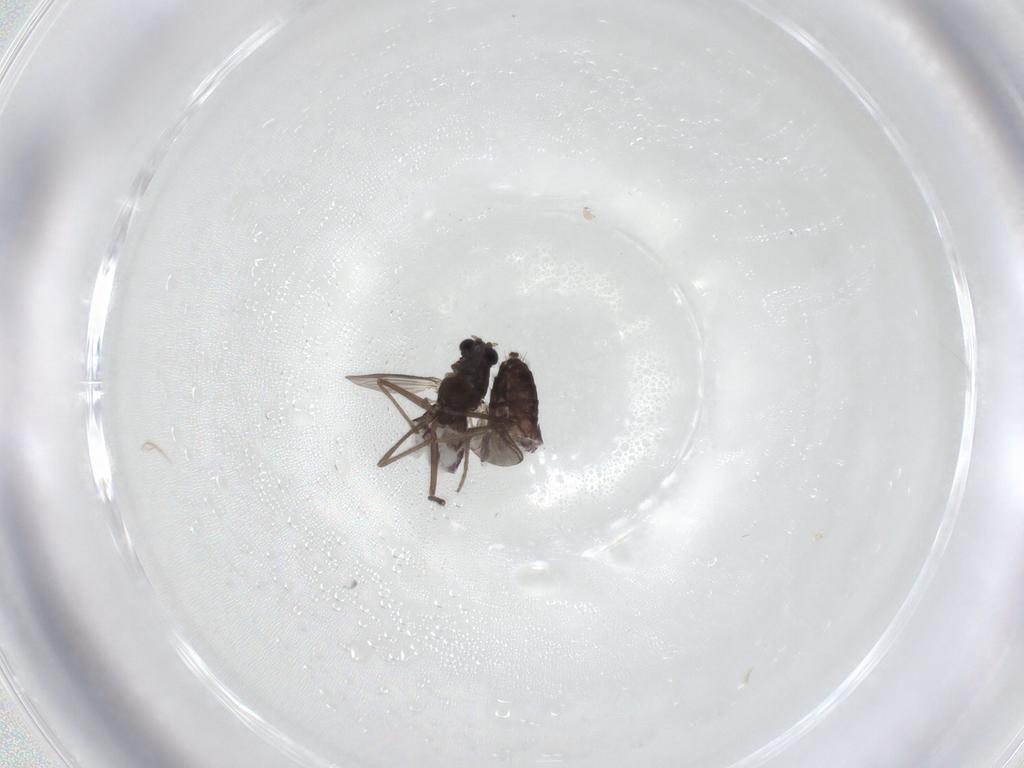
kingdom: Animalia
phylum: Arthropoda
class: Insecta
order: Diptera
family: Chironomidae
